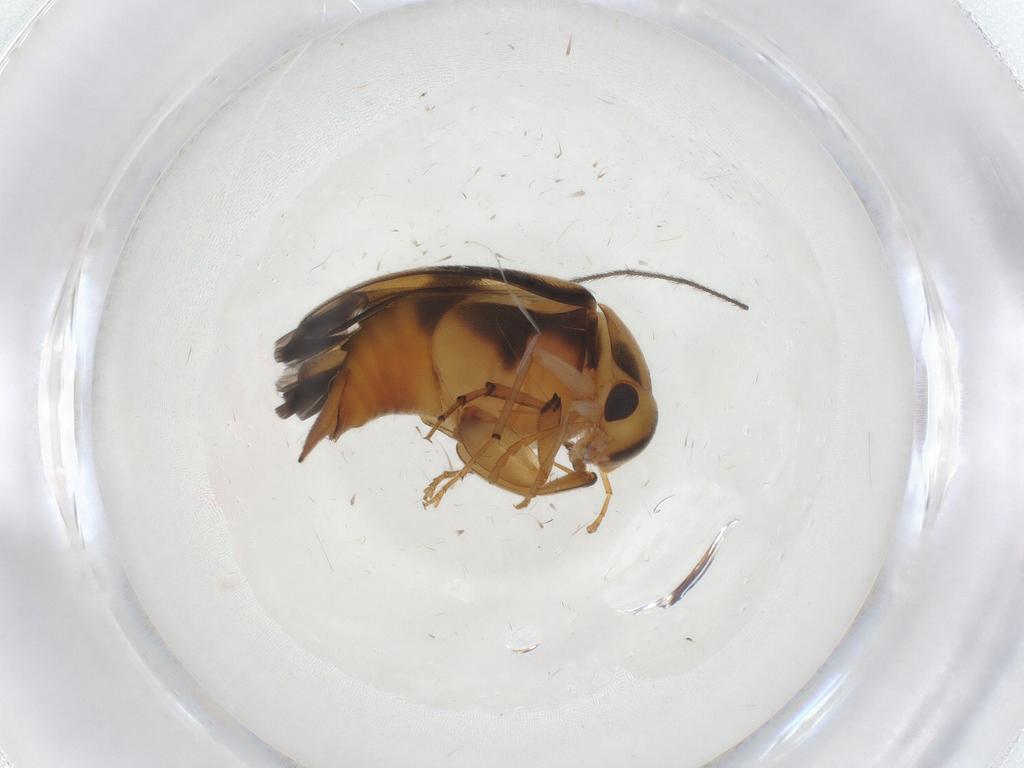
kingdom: Animalia
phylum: Arthropoda
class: Insecta
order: Coleoptera
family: Mordellidae
